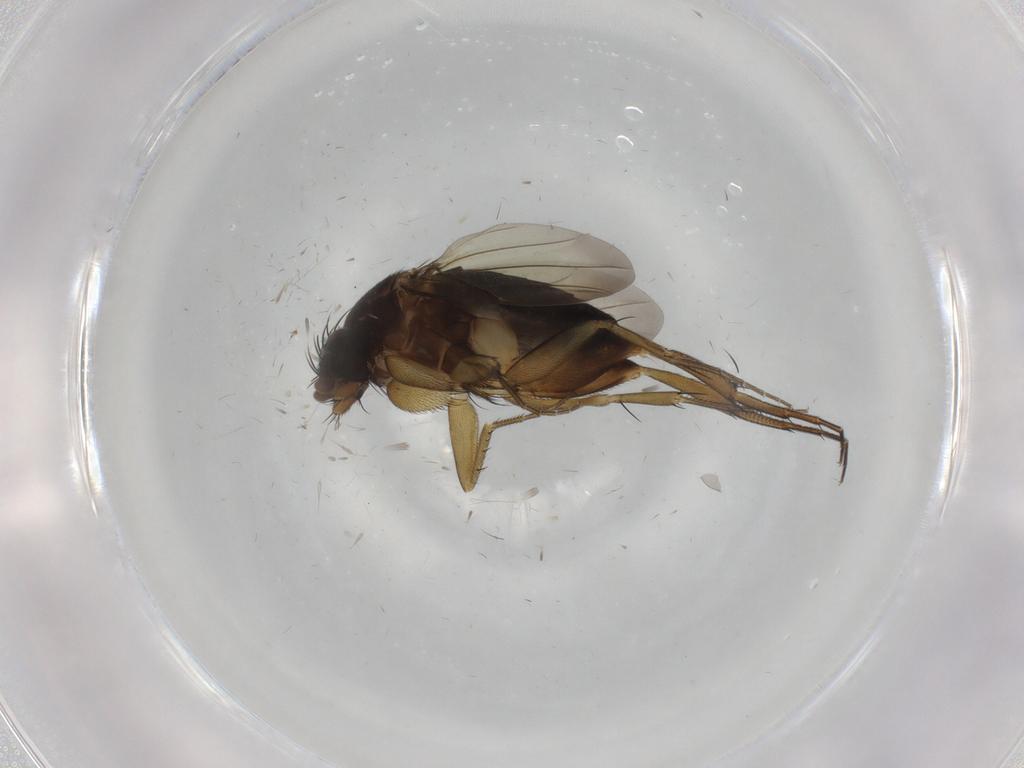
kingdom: Animalia
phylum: Arthropoda
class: Insecta
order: Diptera
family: Phoridae
